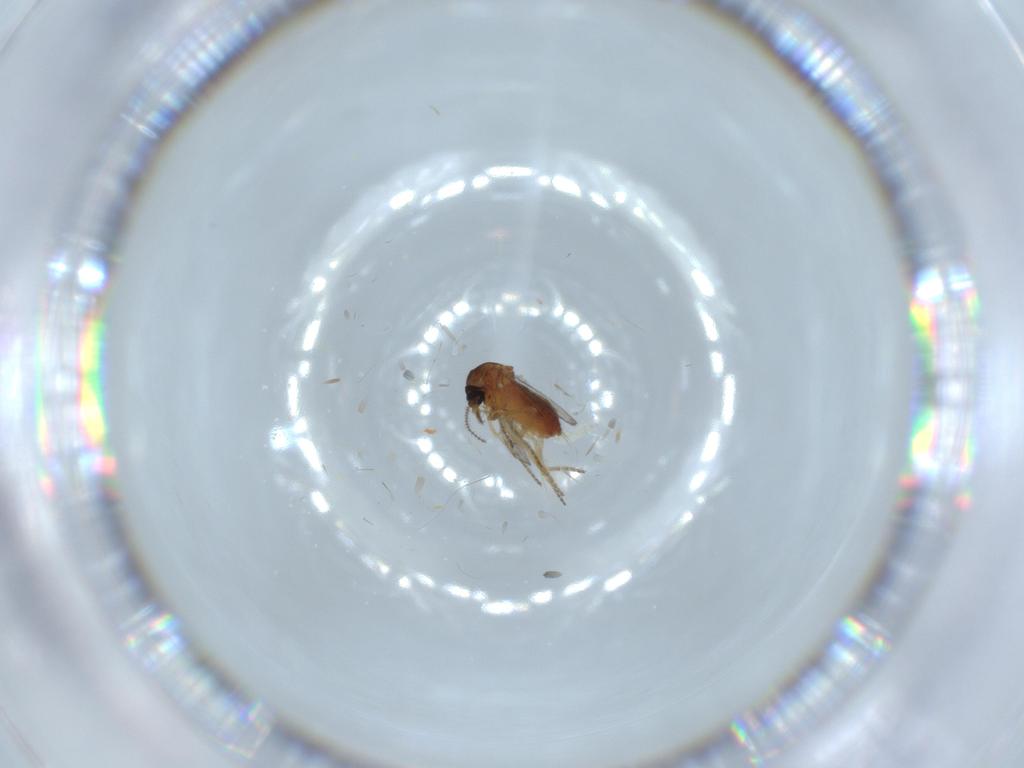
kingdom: Animalia
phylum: Arthropoda
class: Insecta
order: Diptera
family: Ceratopogonidae
